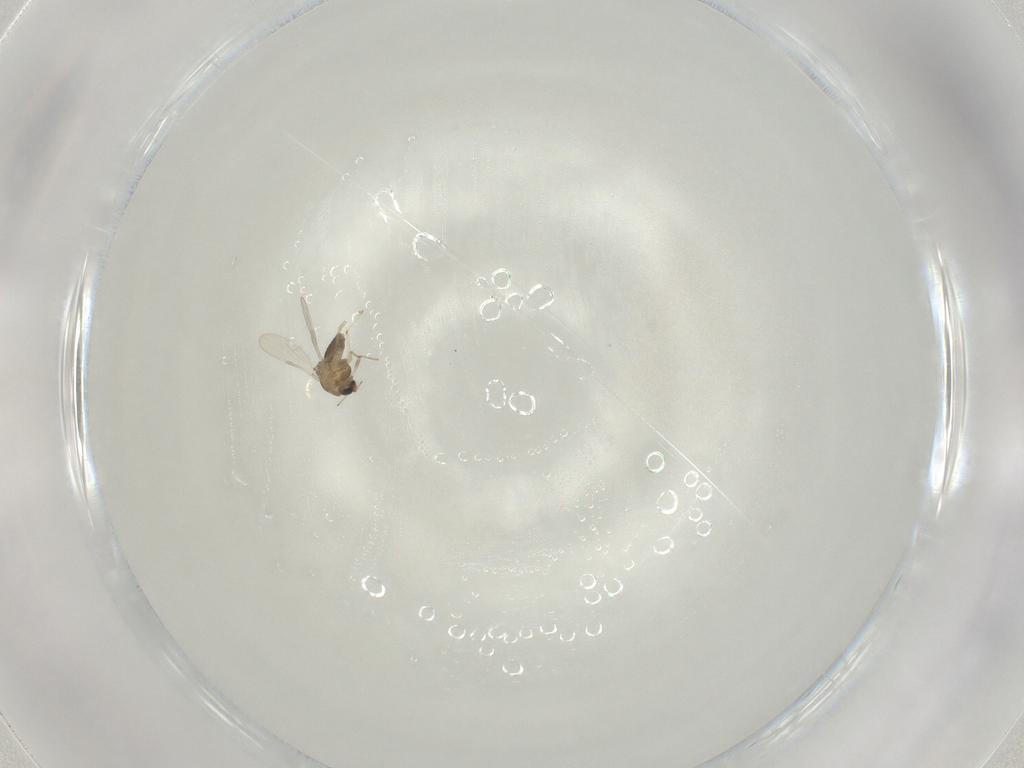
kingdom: Animalia
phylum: Arthropoda
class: Insecta
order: Diptera
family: Chironomidae
